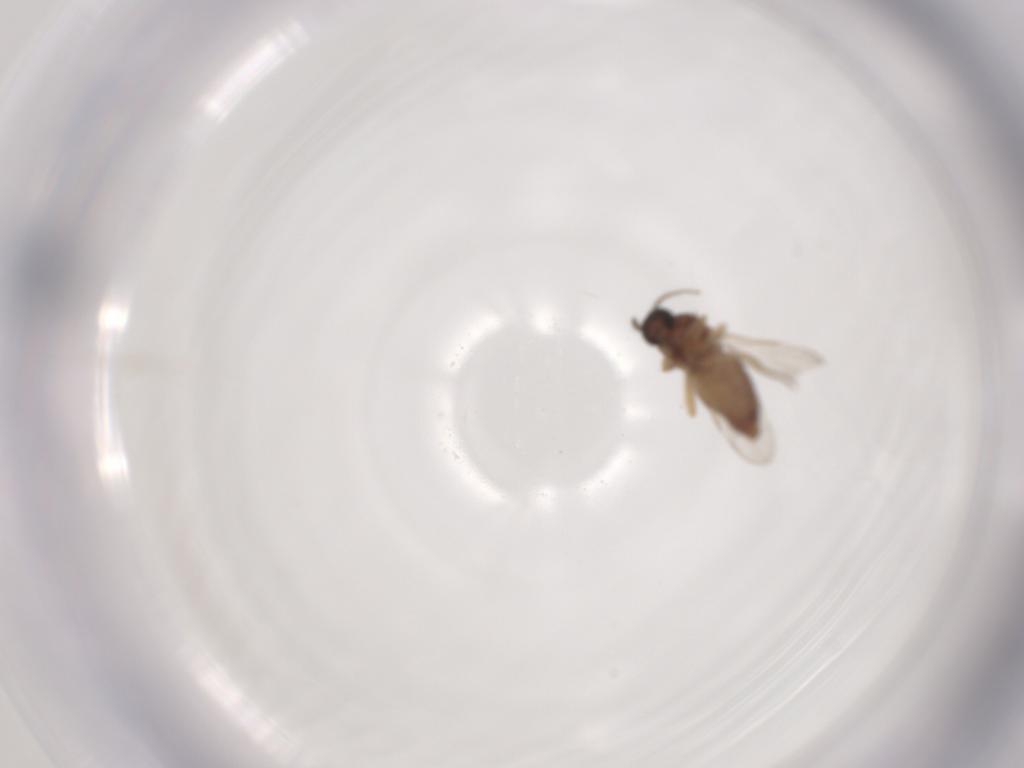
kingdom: Animalia
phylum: Arthropoda
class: Insecta
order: Diptera
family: Ceratopogonidae
